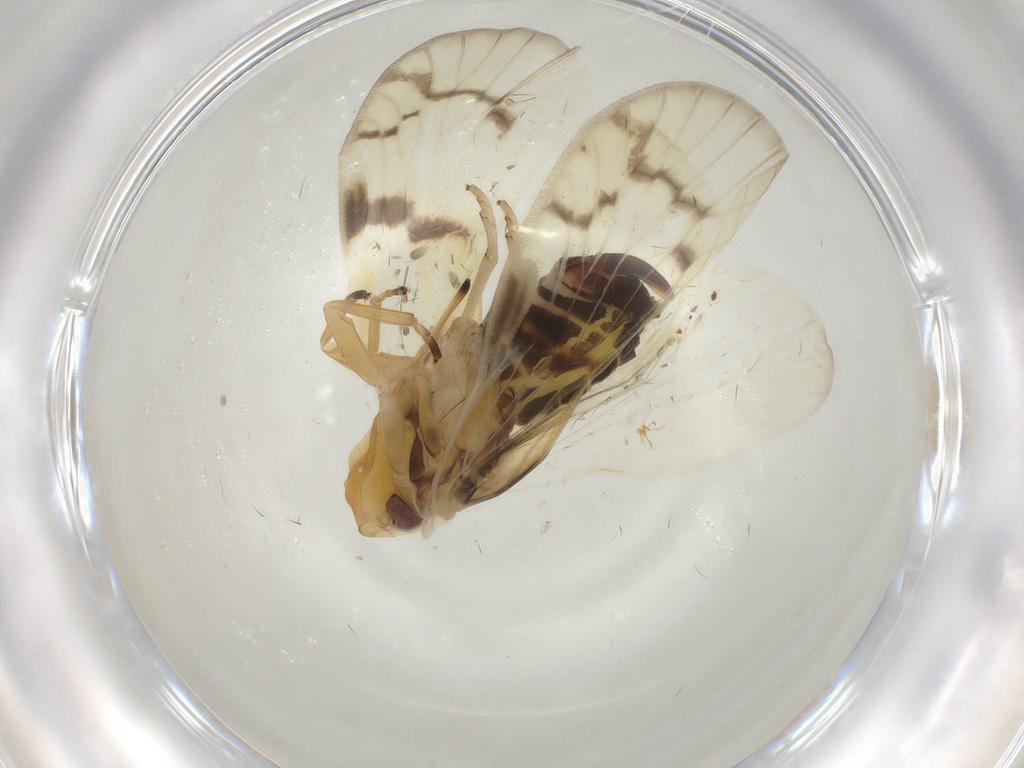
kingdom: Animalia
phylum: Arthropoda
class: Insecta
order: Hemiptera
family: Cixiidae
